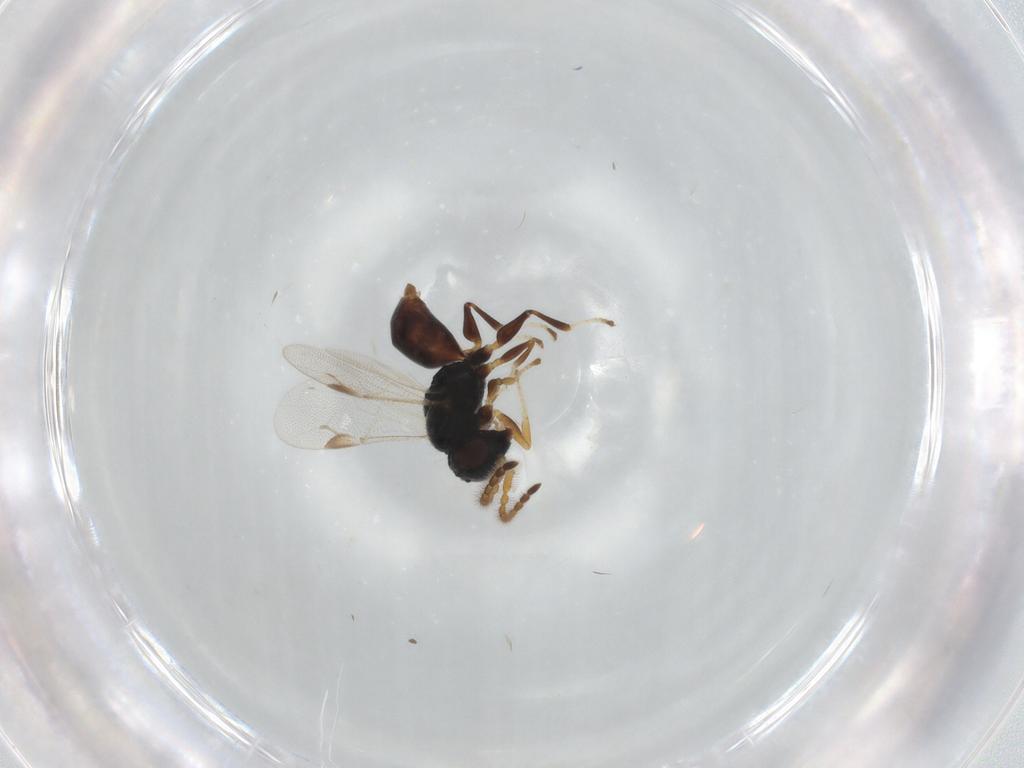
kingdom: Animalia
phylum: Arthropoda
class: Insecta
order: Hymenoptera
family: Dryinidae
